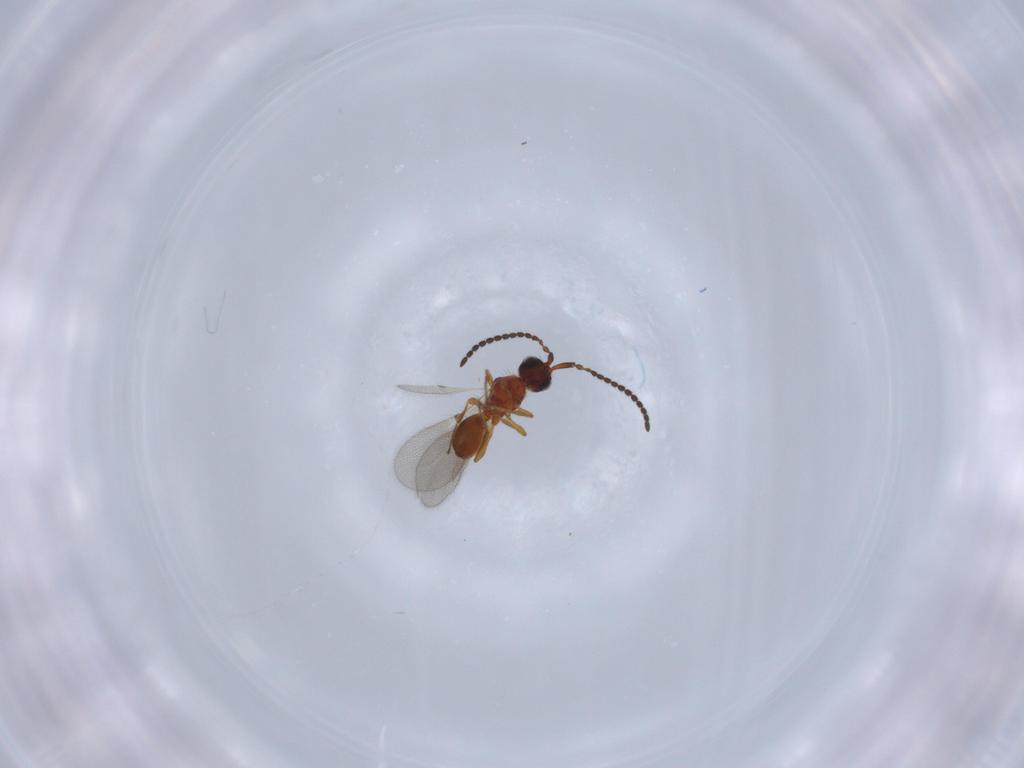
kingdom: Animalia
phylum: Arthropoda
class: Insecta
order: Hymenoptera
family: Diapriidae
